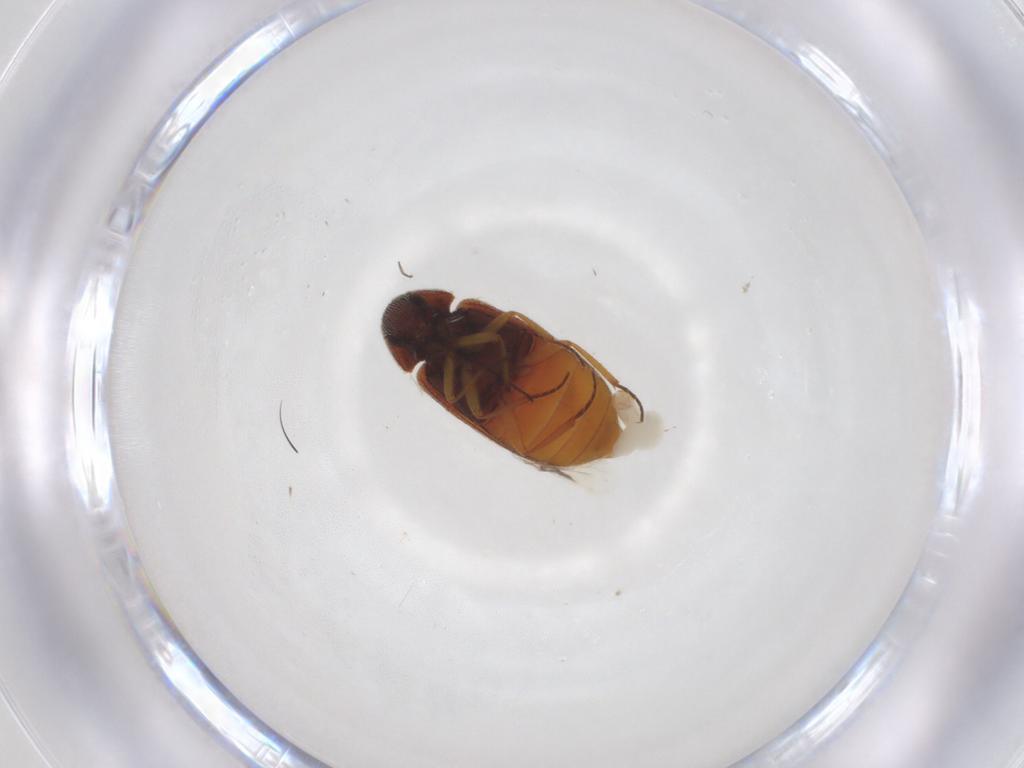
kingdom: Animalia
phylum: Arthropoda
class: Insecta
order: Coleoptera
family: Rhadalidae
